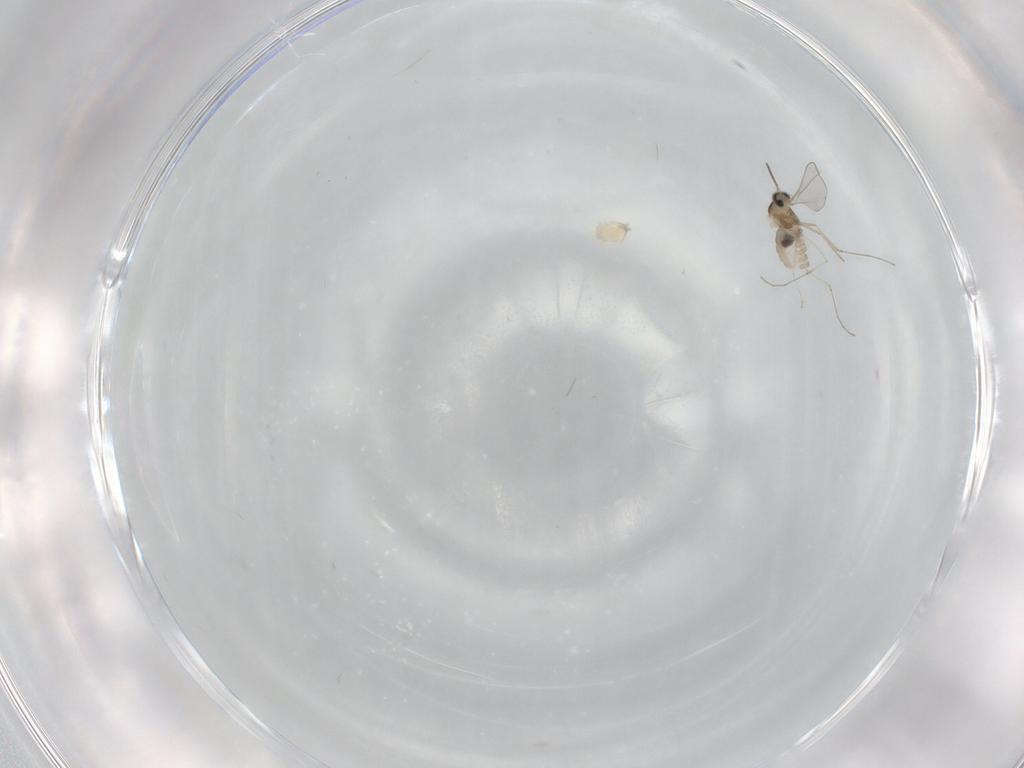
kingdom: Animalia
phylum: Arthropoda
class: Insecta
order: Diptera
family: Cecidomyiidae
